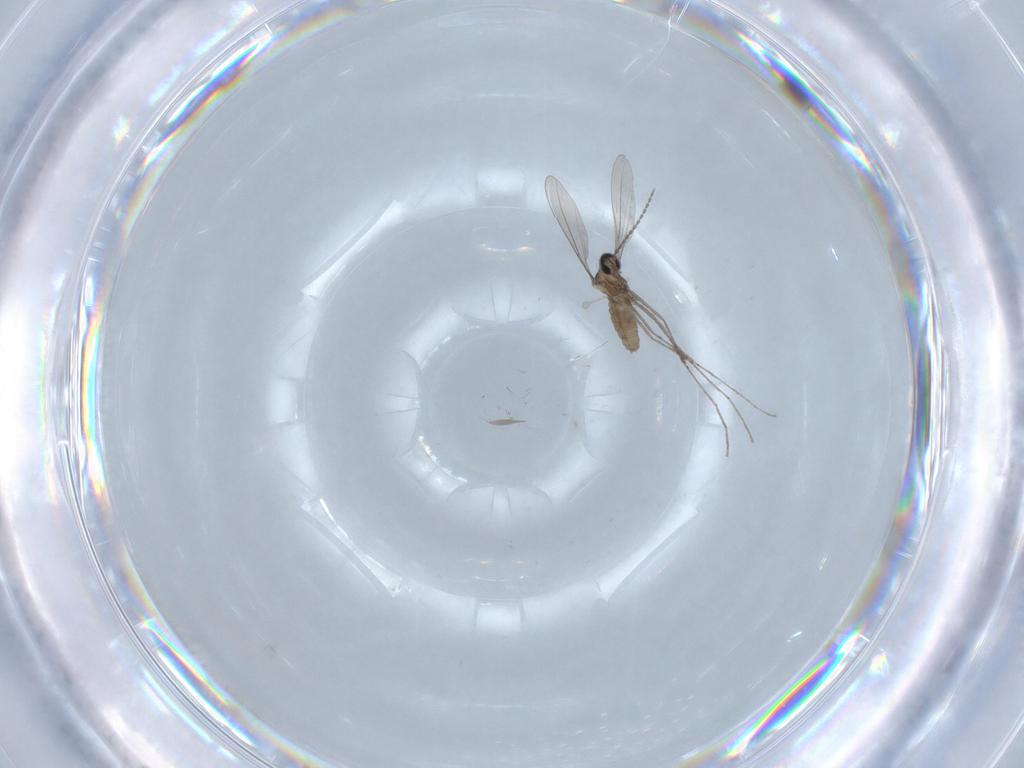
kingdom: Animalia
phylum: Arthropoda
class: Insecta
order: Diptera
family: Cecidomyiidae
